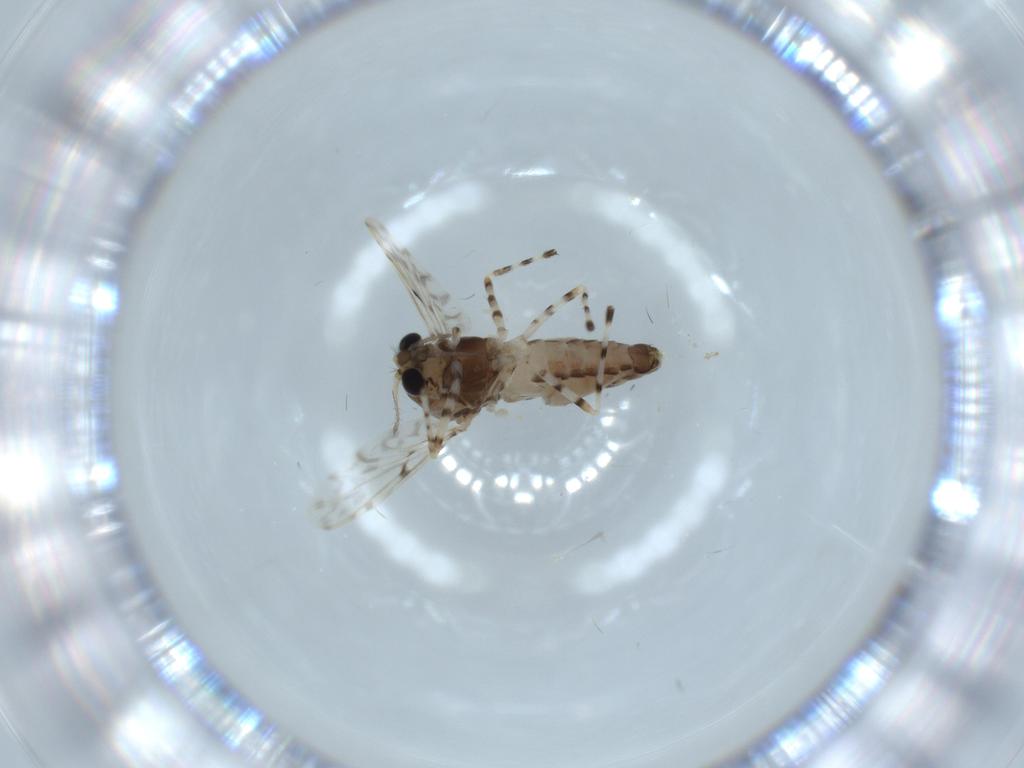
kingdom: Animalia
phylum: Arthropoda
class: Insecta
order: Diptera
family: Chironomidae
